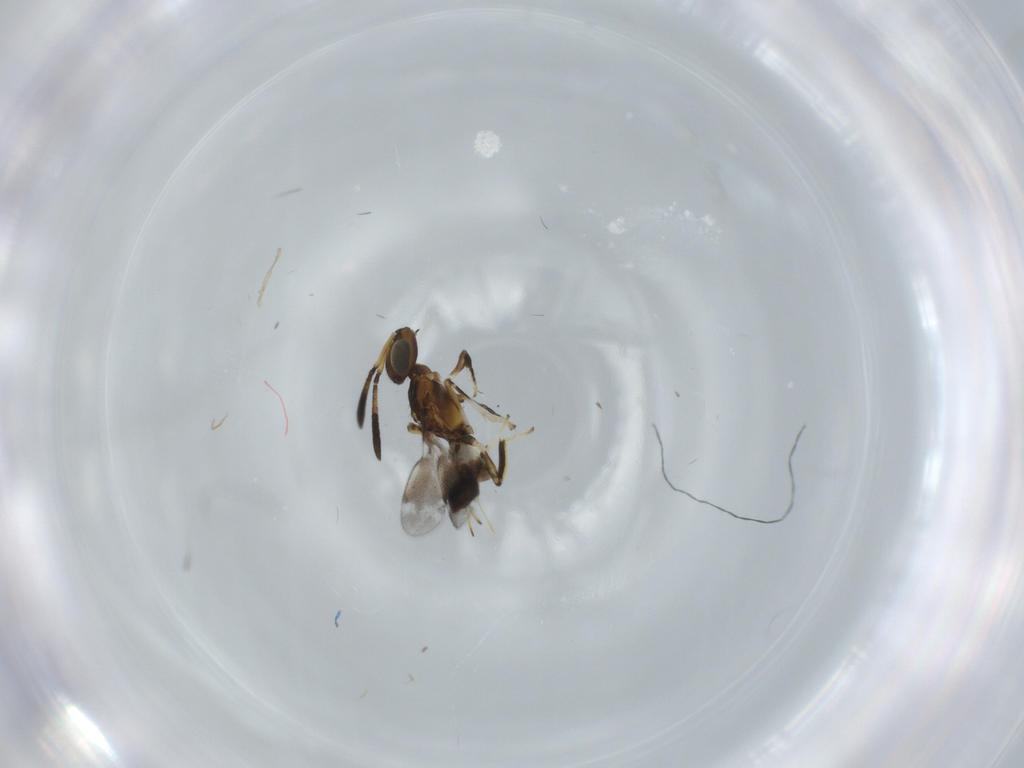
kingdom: Animalia
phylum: Arthropoda
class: Insecta
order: Hymenoptera
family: Eupelmidae
